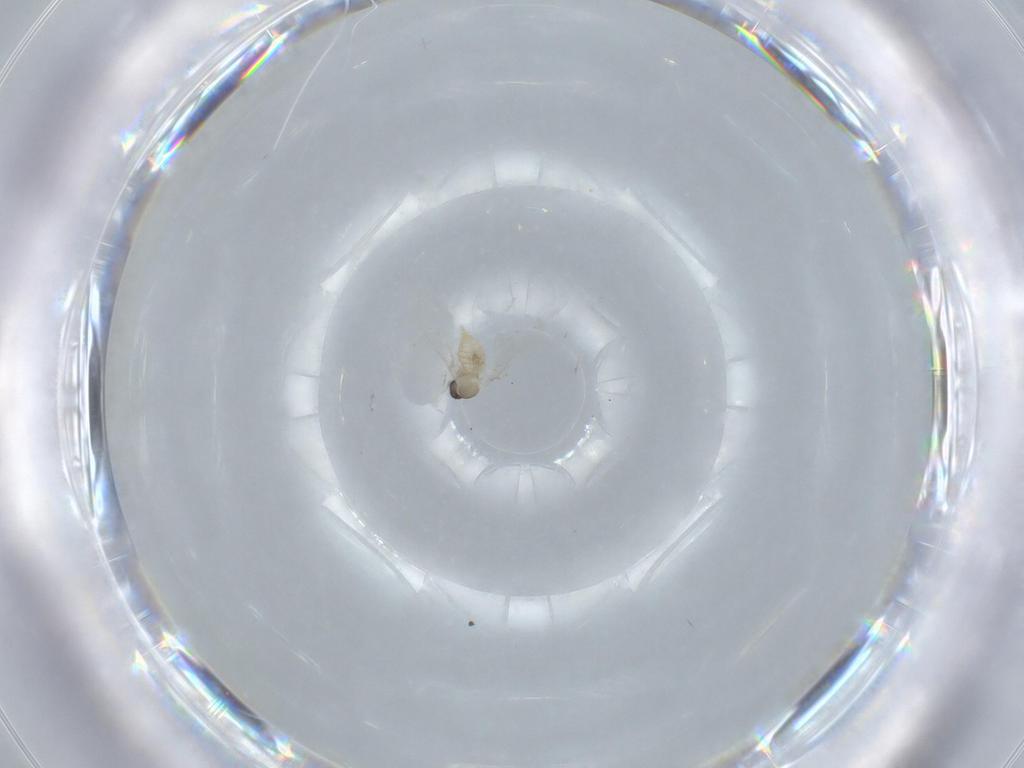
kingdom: Animalia
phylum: Arthropoda
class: Insecta
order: Diptera
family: Cecidomyiidae
